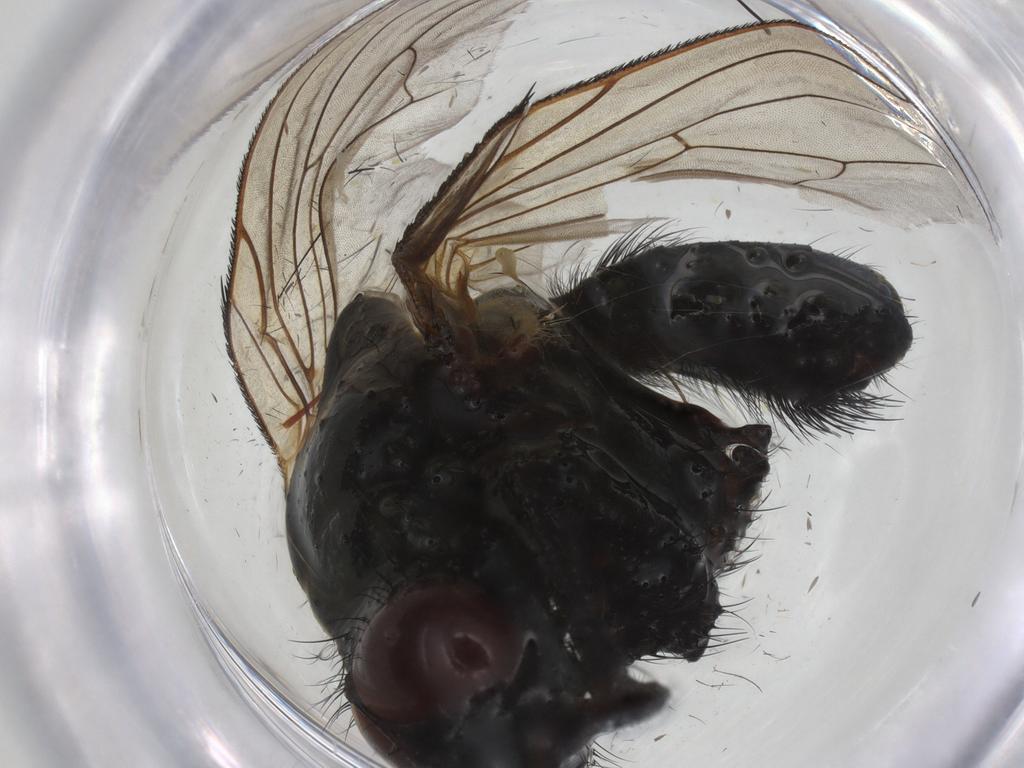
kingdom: Animalia
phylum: Arthropoda
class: Insecta
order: Diptera
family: Anthomyiidae
